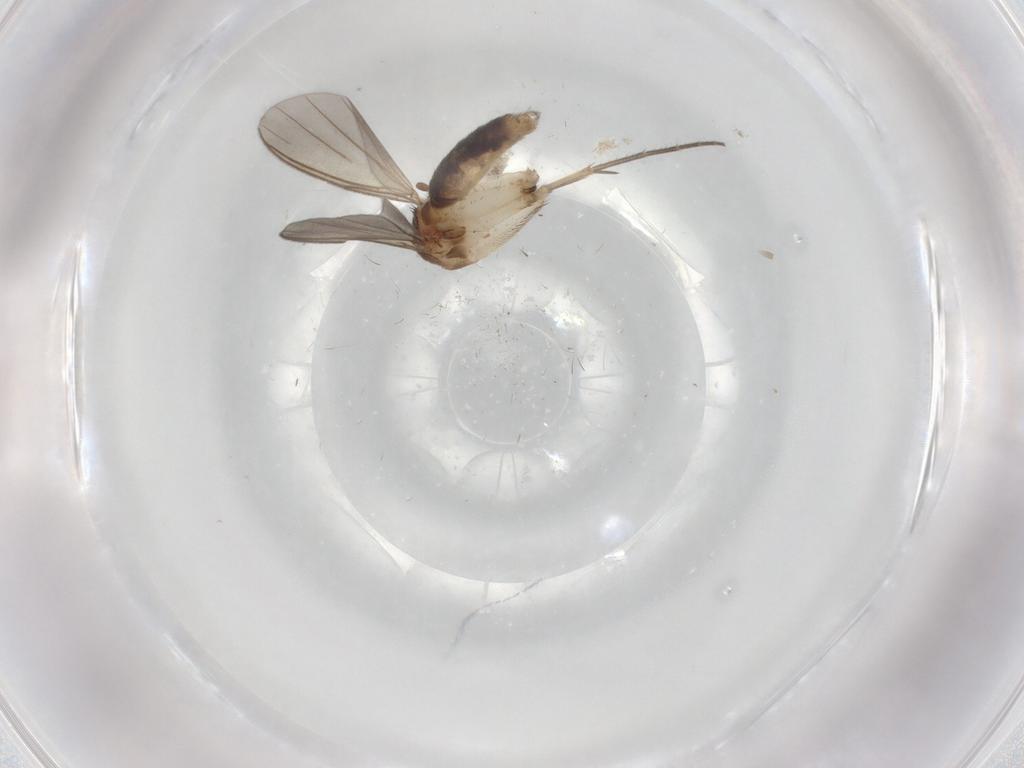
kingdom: Animalia
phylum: Arthropoda
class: Insecta
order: Diptera
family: Mycetophilidae
